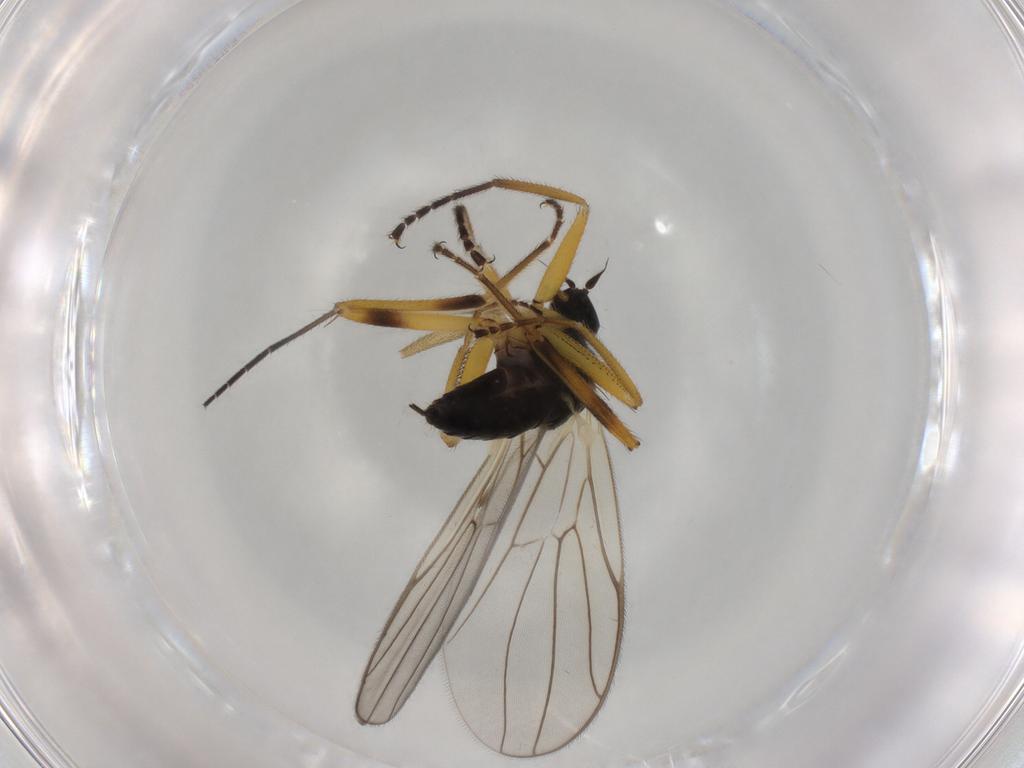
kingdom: Animalia
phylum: Arthropoda
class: Insecta
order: Diptera
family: Hybotidae
